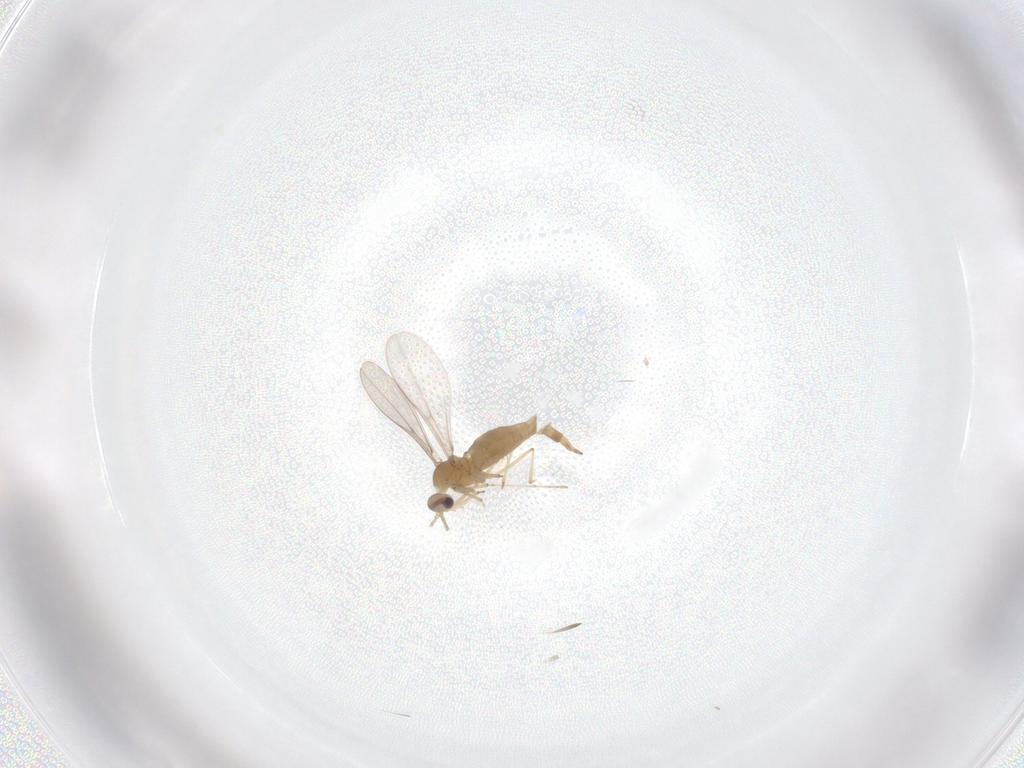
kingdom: Animalia
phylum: Arthropoda
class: Insecta
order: Diptera
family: Cecidomyiidae
